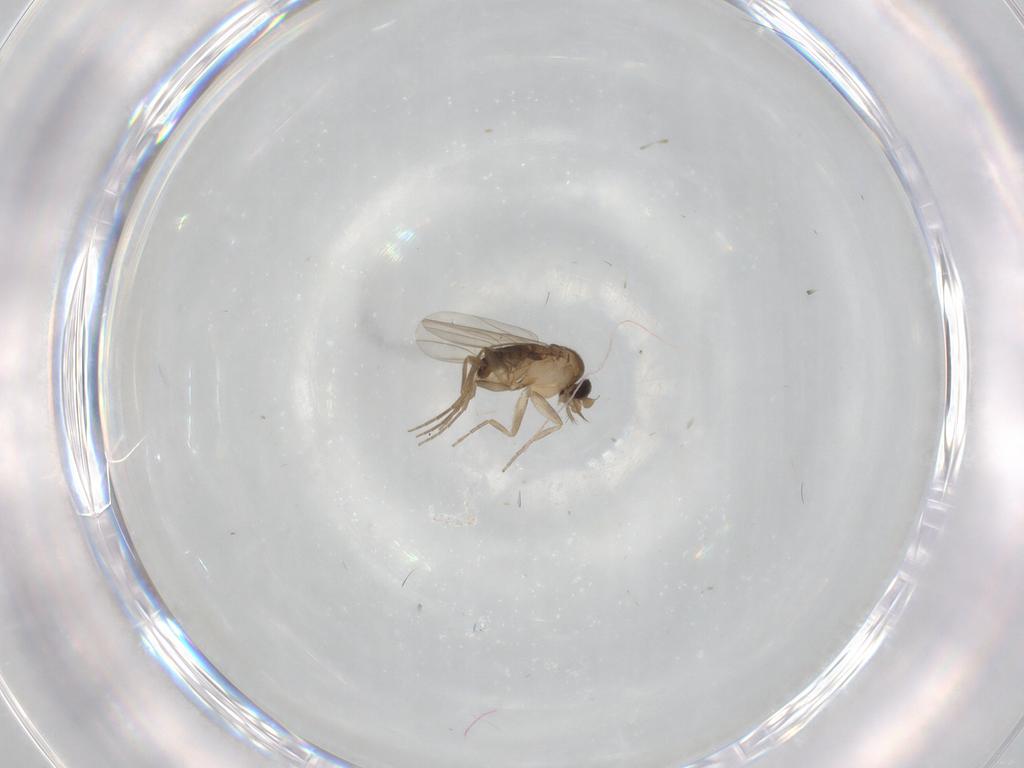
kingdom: Animalia
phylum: Arthropoda
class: Insecta
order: Diptera
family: Phoridae
